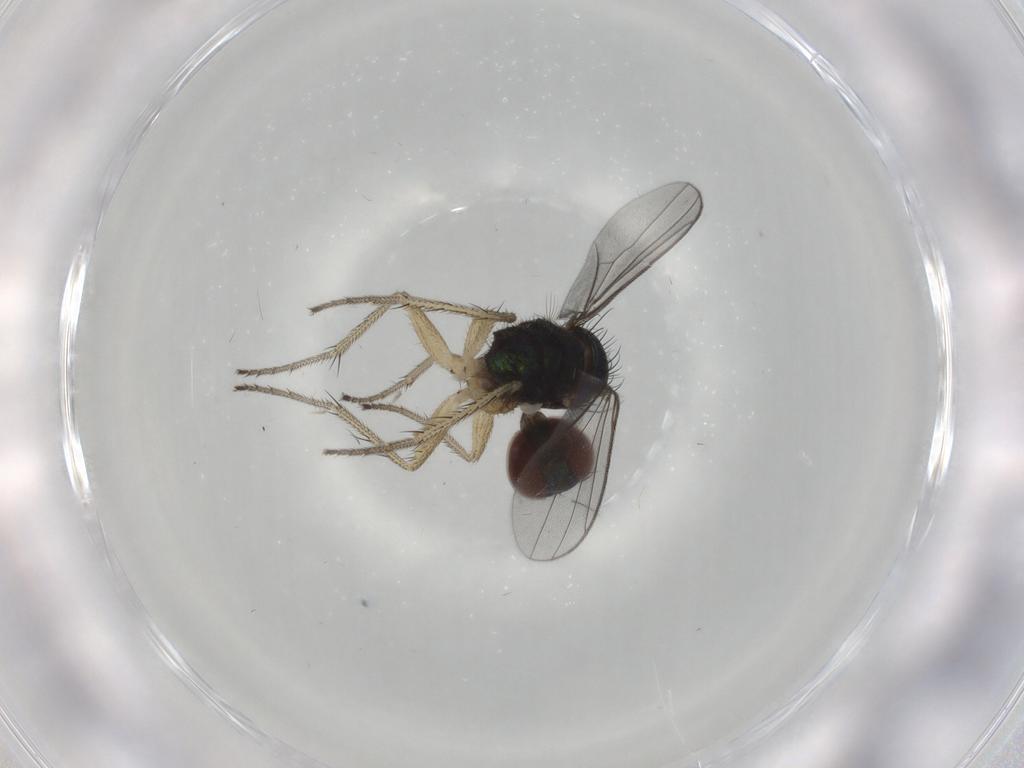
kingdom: Animalia
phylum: Arthropoda
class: Insecta
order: Diptera
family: Dolichopodidae
